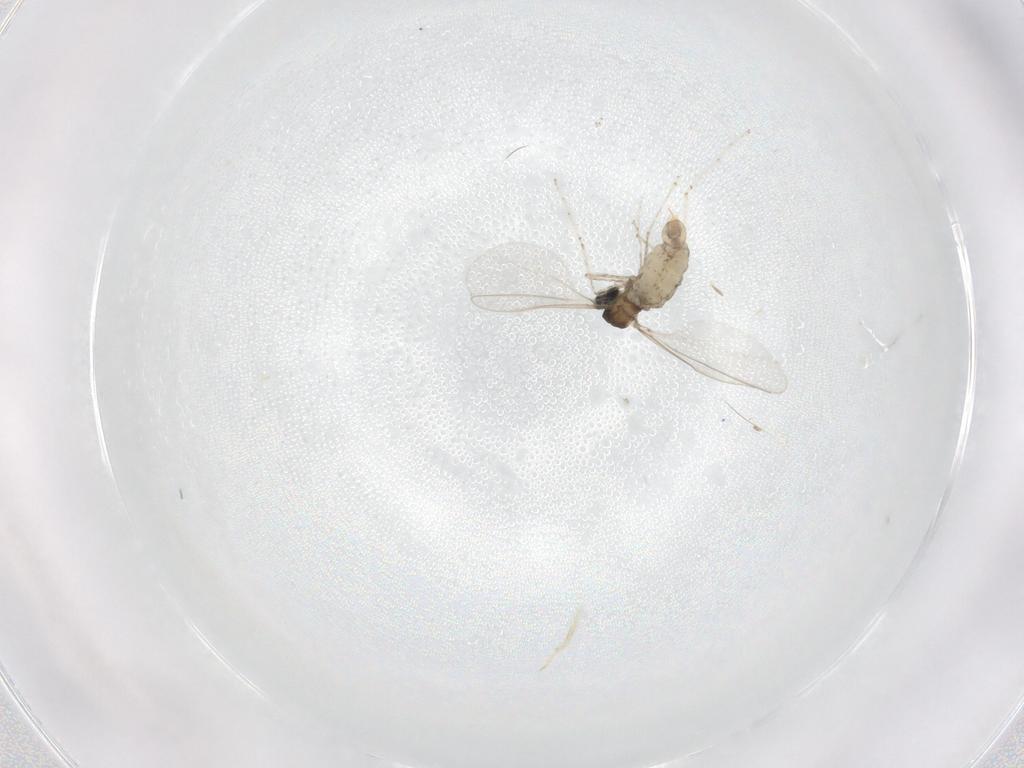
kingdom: Animalia
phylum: Arthropoda
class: Insecta
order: Diptera
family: Cecidomyiidae
